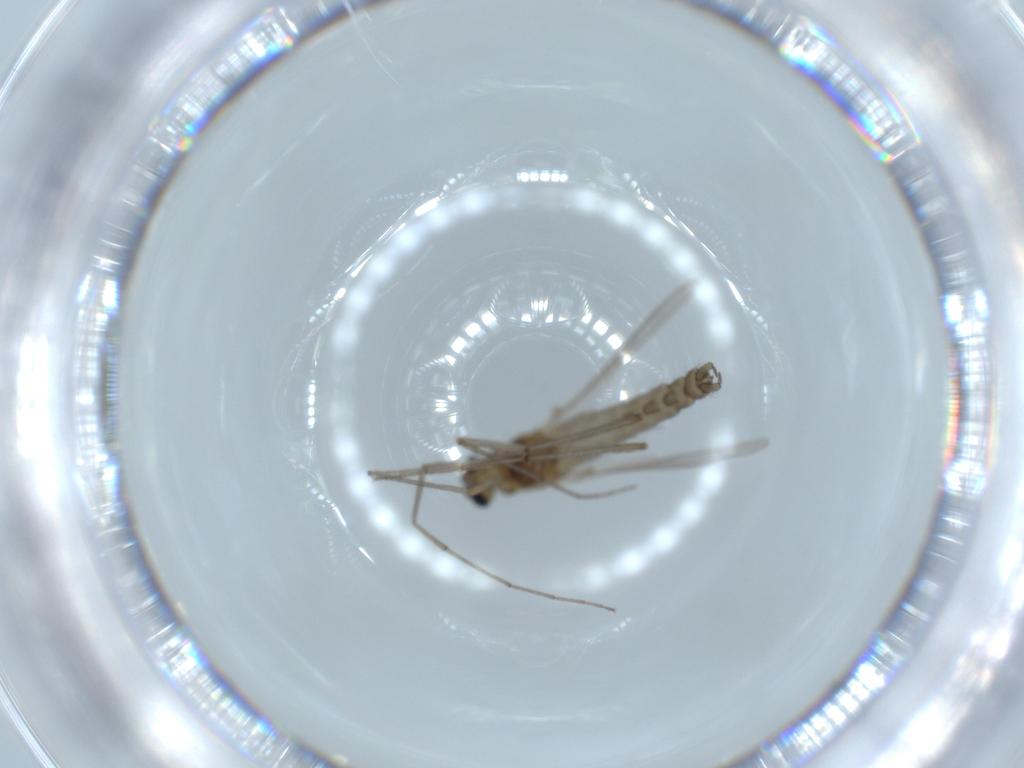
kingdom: Animalia
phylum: Arthropoda
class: Insecta
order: Diptera
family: Chironomidae
